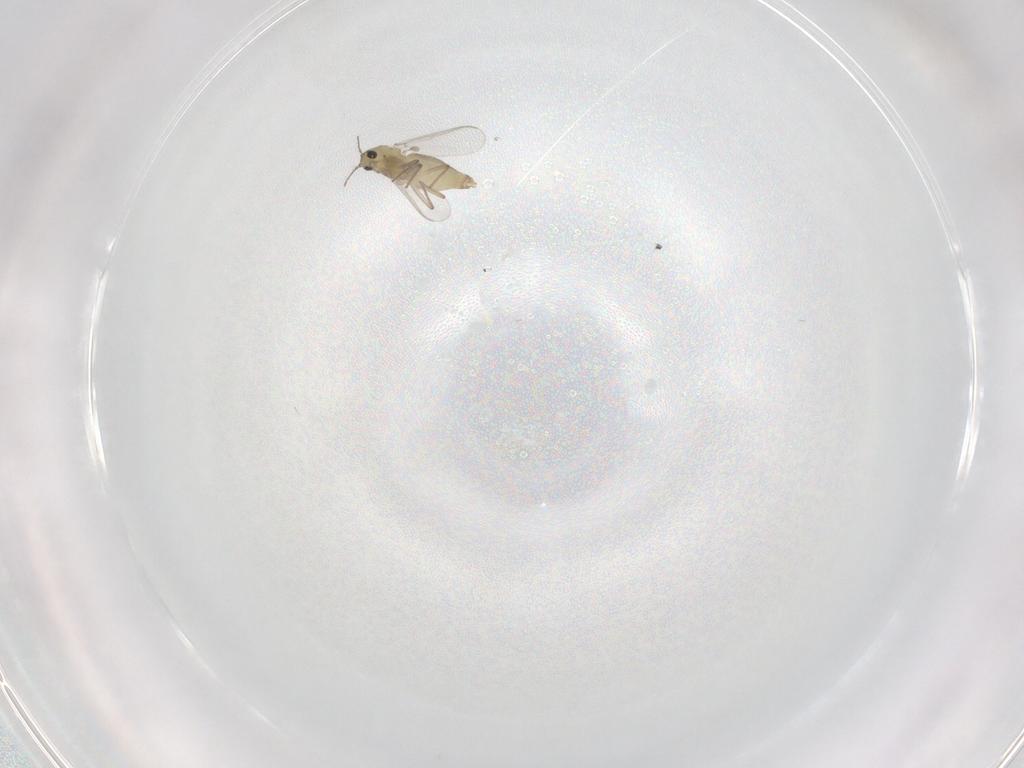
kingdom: Animalia
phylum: Arthropoda
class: Insecta
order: Diptera
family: Chironomidae
